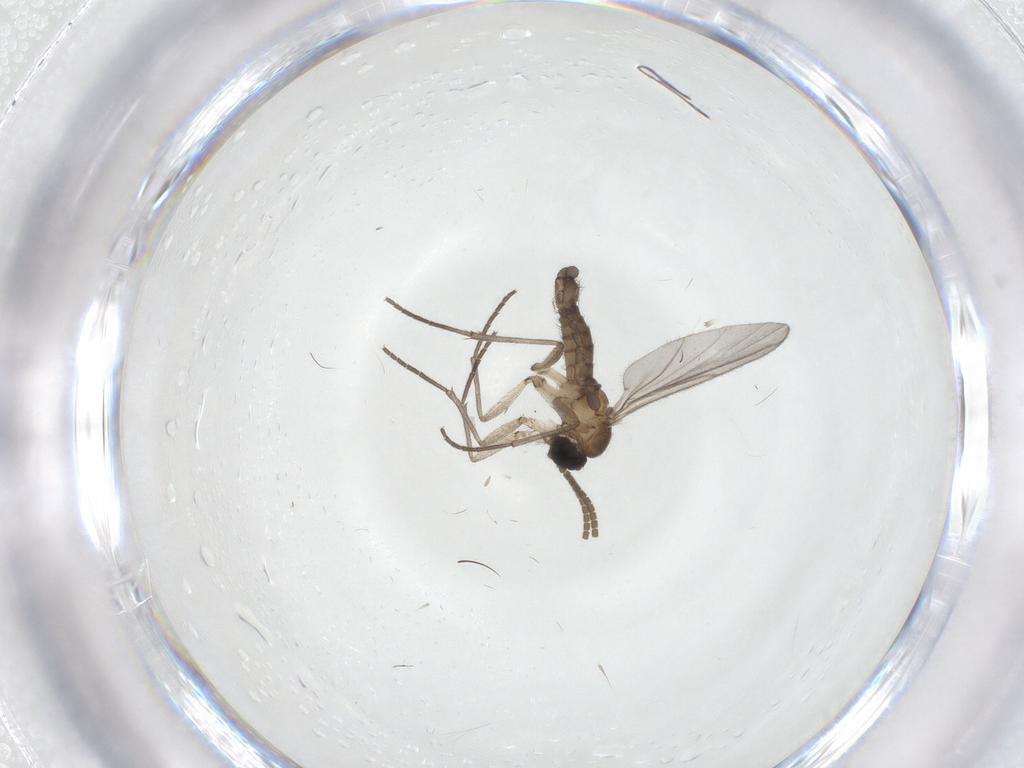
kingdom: Animalia
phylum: Arthropoda
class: Insecta
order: Diptera
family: Cecidomyiidae
